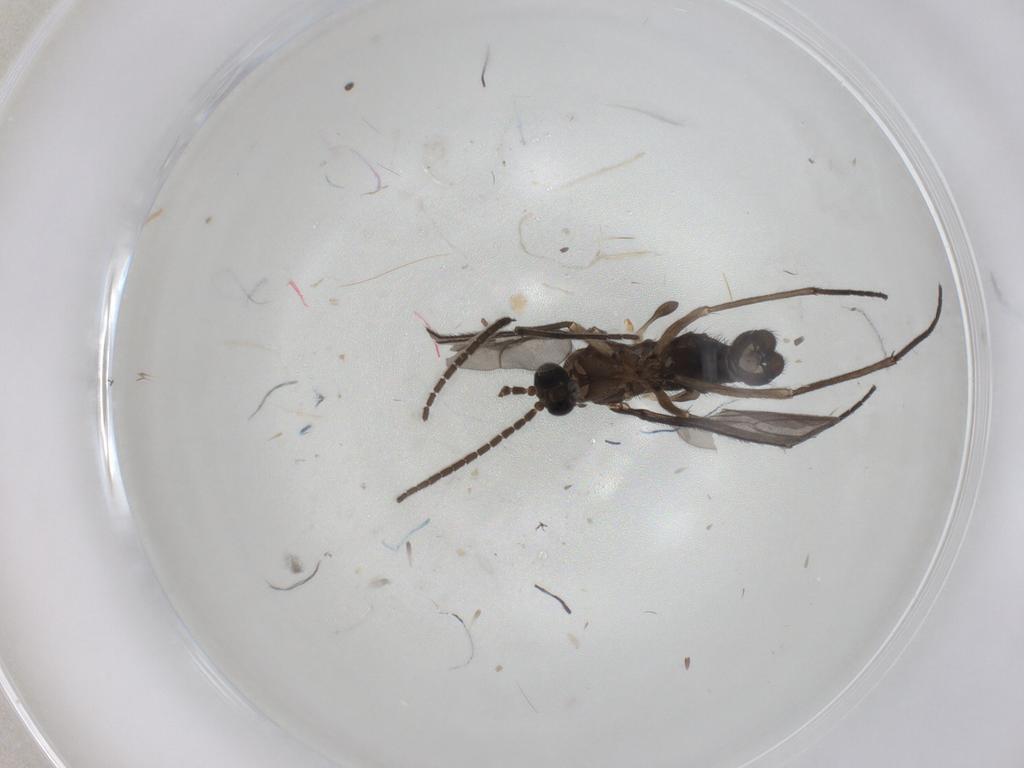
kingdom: Animalia
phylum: Arthropoda
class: Insecta
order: Diptera
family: Sciaridae
